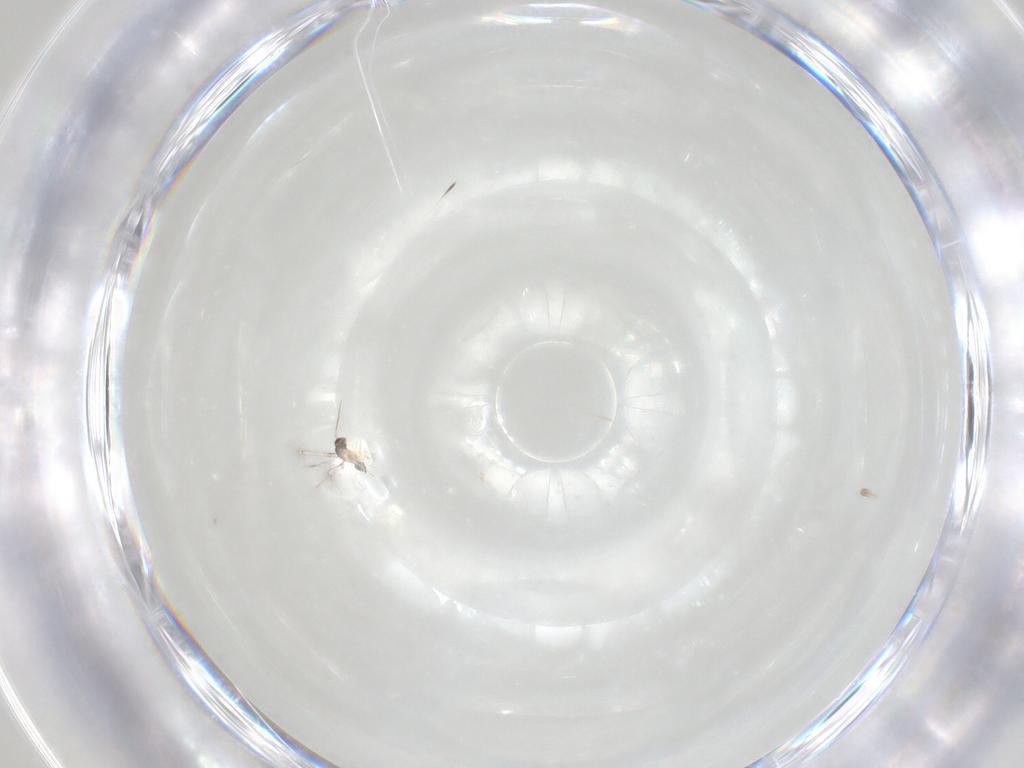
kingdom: Animalia
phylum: Arthropoda
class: Insecta
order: Hymenoptera
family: Mymaridae
